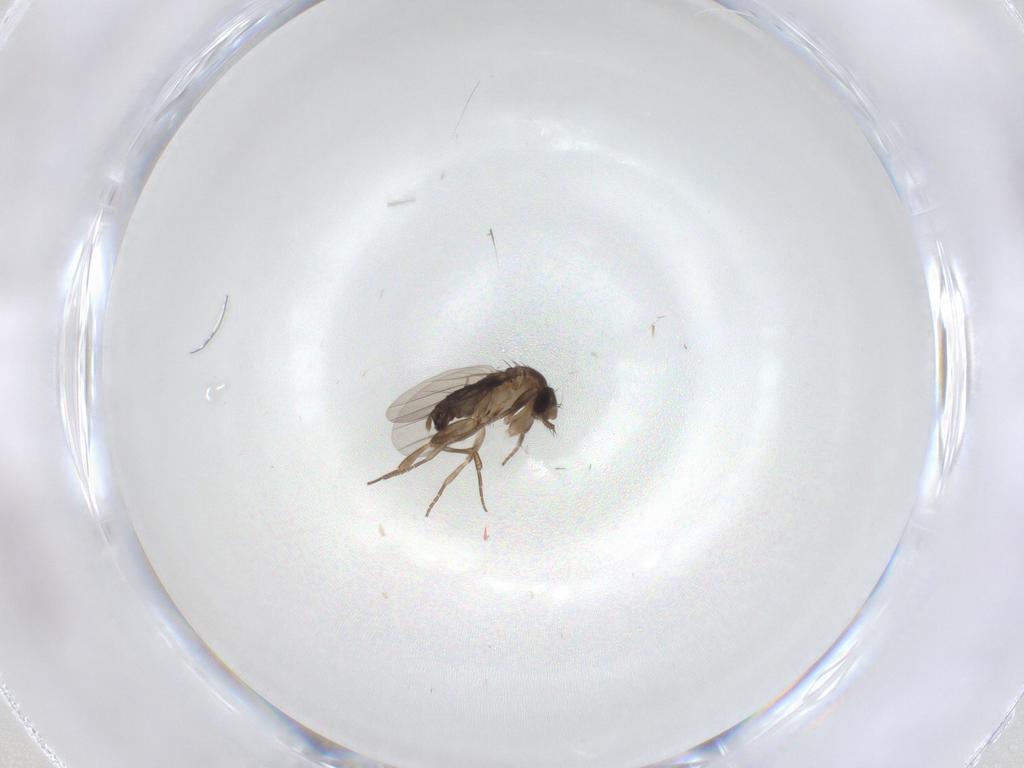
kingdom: Animalia
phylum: Arthropoda
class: Insecta
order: Diptera
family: Phoridae
